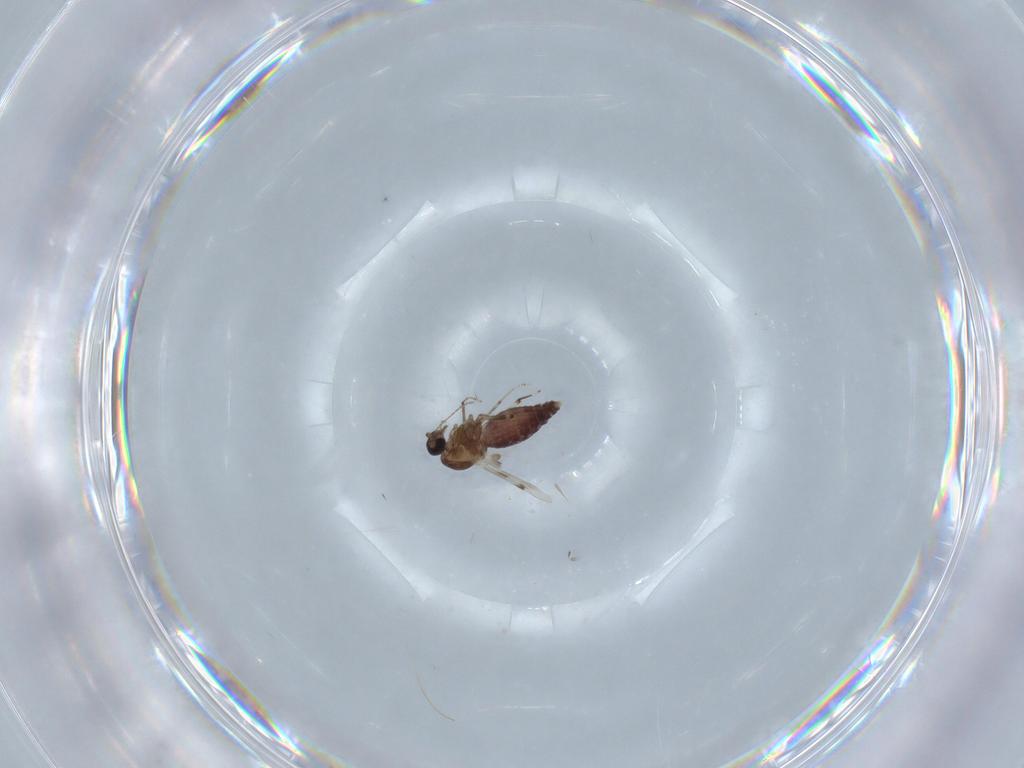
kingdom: Animalia
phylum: Arthropoda
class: Insecta
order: Diptera
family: Ceratopogonidae
